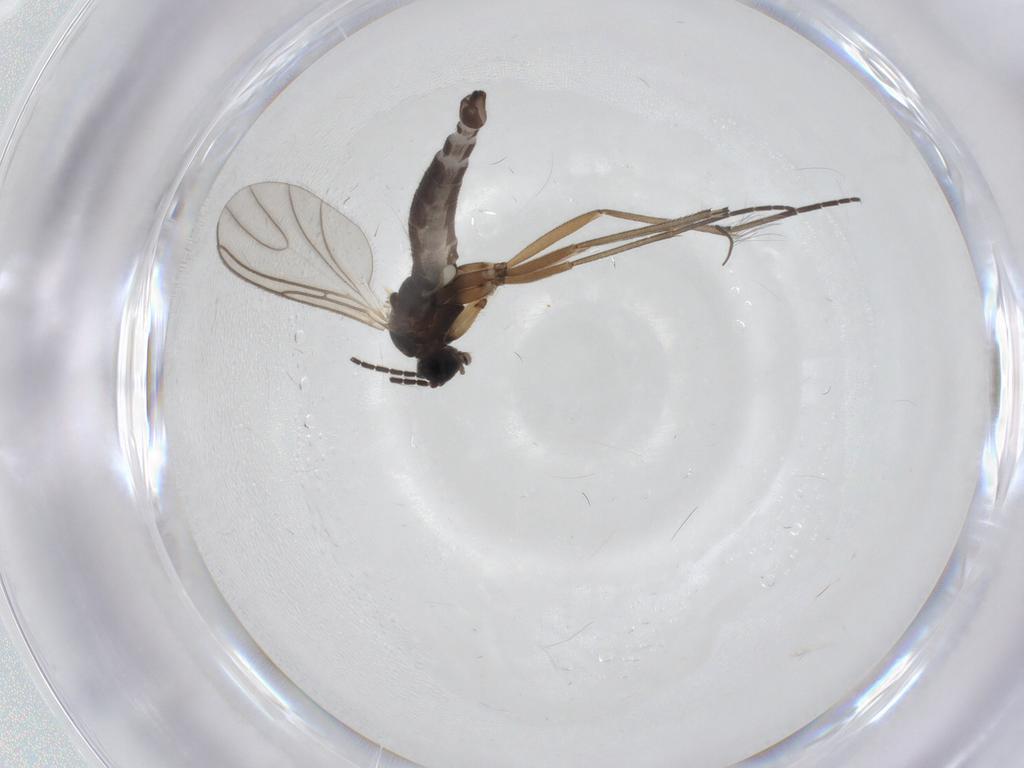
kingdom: Animalia
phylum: Arthropoda
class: Insecta
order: Diptera
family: Sciaridae
